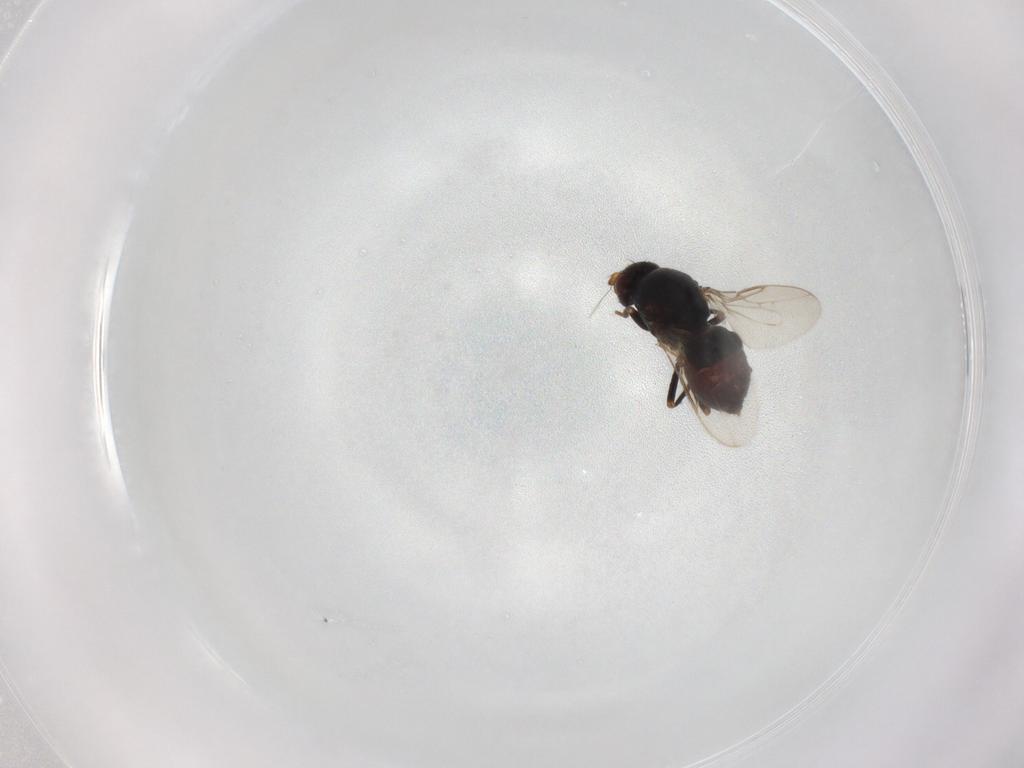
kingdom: Animalia
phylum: Arthropoda
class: Insecta
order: Diptera
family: Sphaeroceridae
